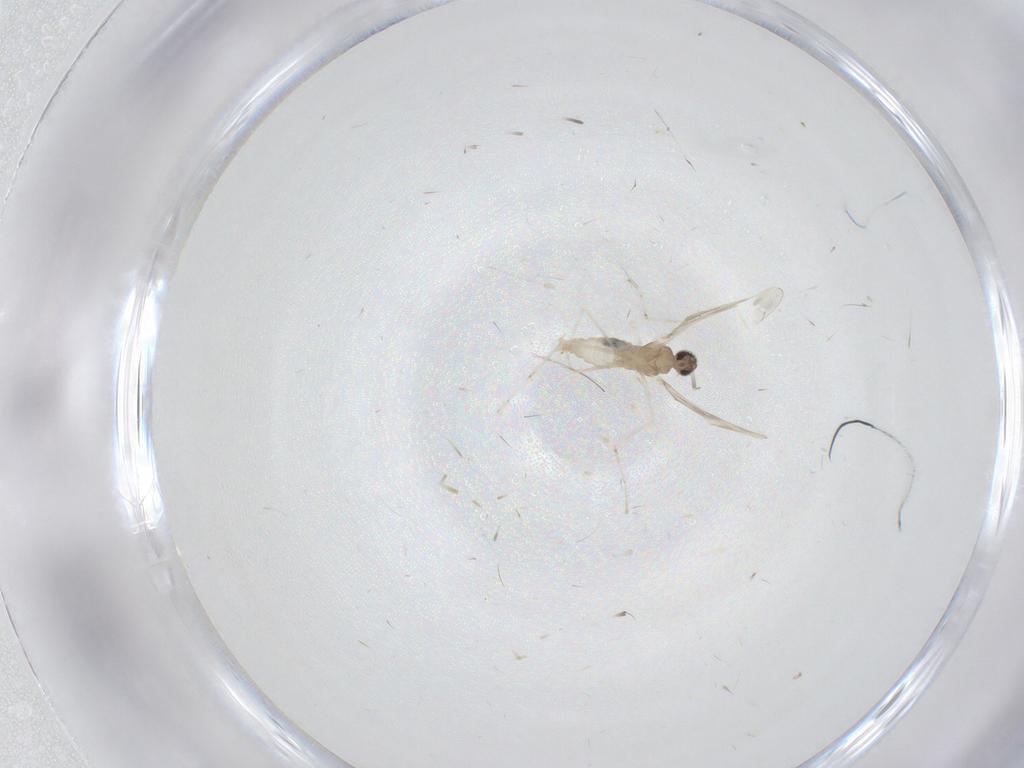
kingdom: Animalia
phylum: Arthropoda
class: Insecta
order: Diptera
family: Cecidomyiidae
